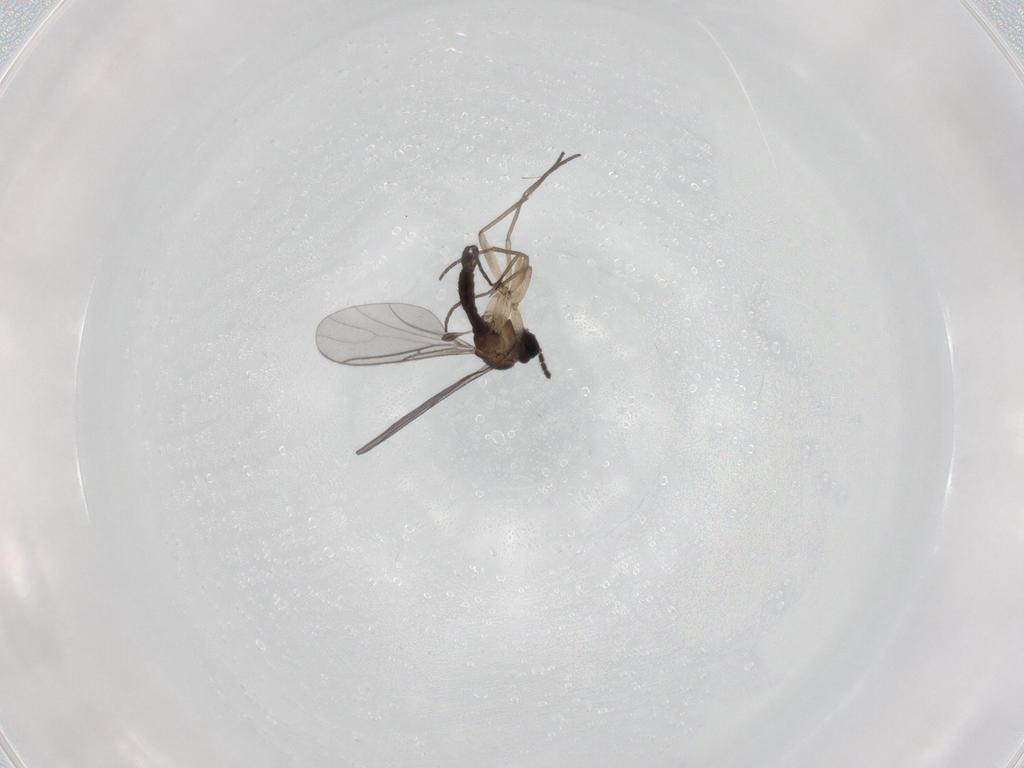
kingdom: Animalia
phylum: Arthropoda
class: Insecta
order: Diptera
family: Sciaridae
